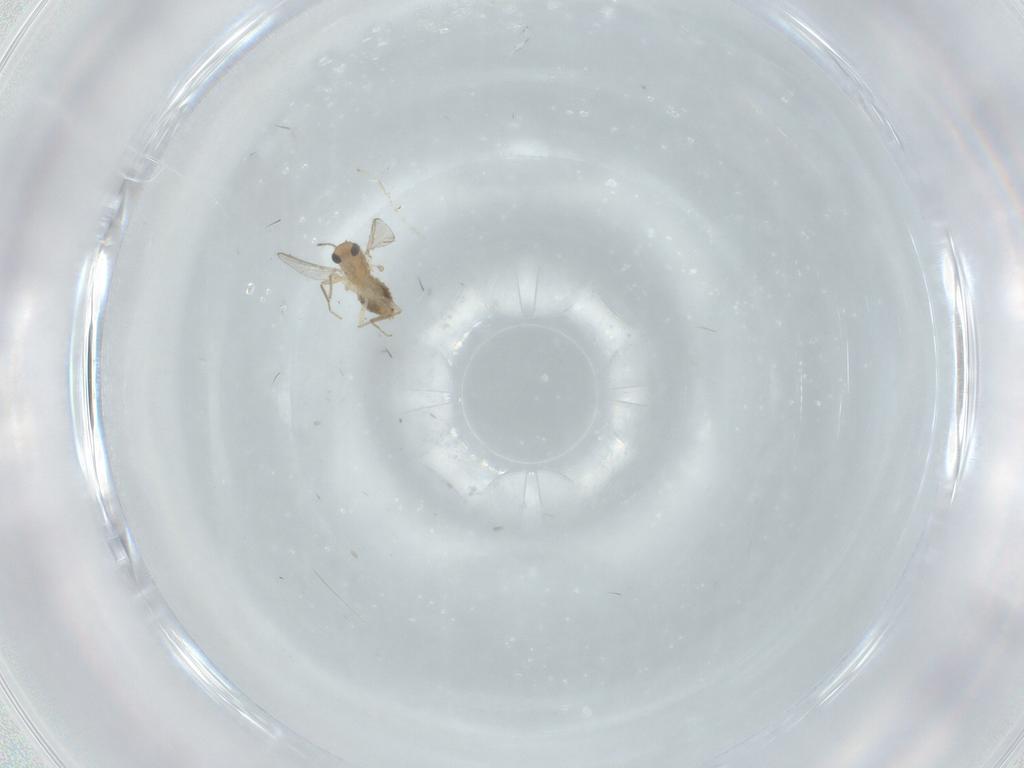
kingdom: Animalia
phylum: Arthropoda
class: Insecta
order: Diptera
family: Chironomidae
